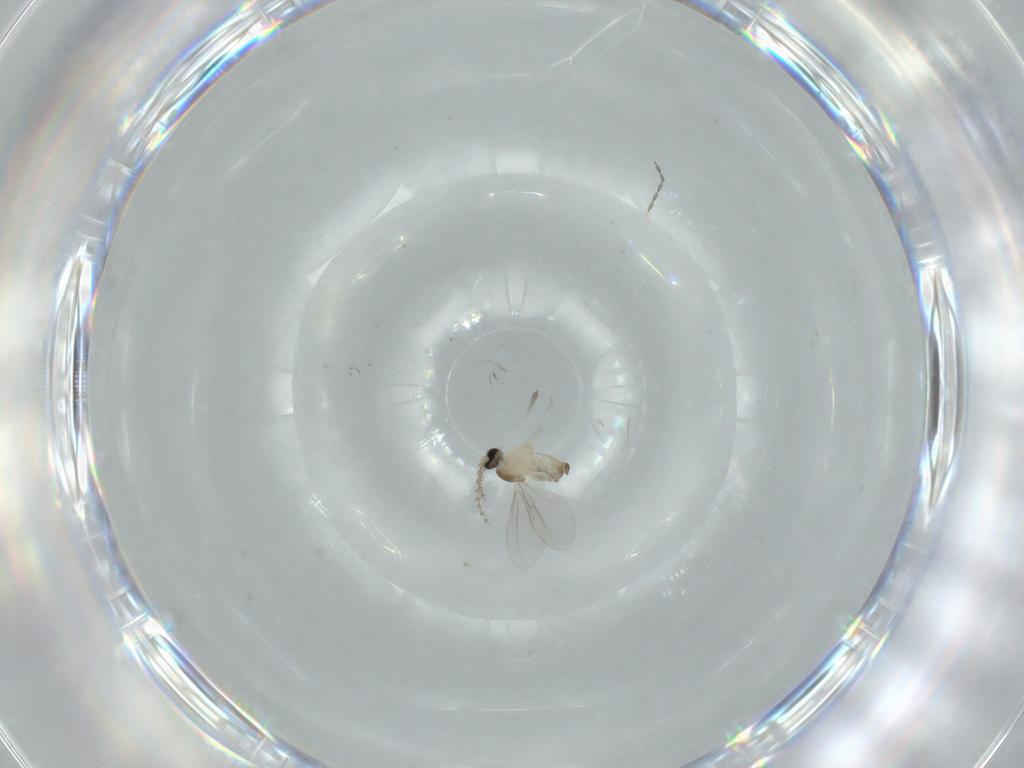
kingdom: Animalia
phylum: Arthropoda
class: Insecta
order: Diptera
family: Cecidomyiidae
